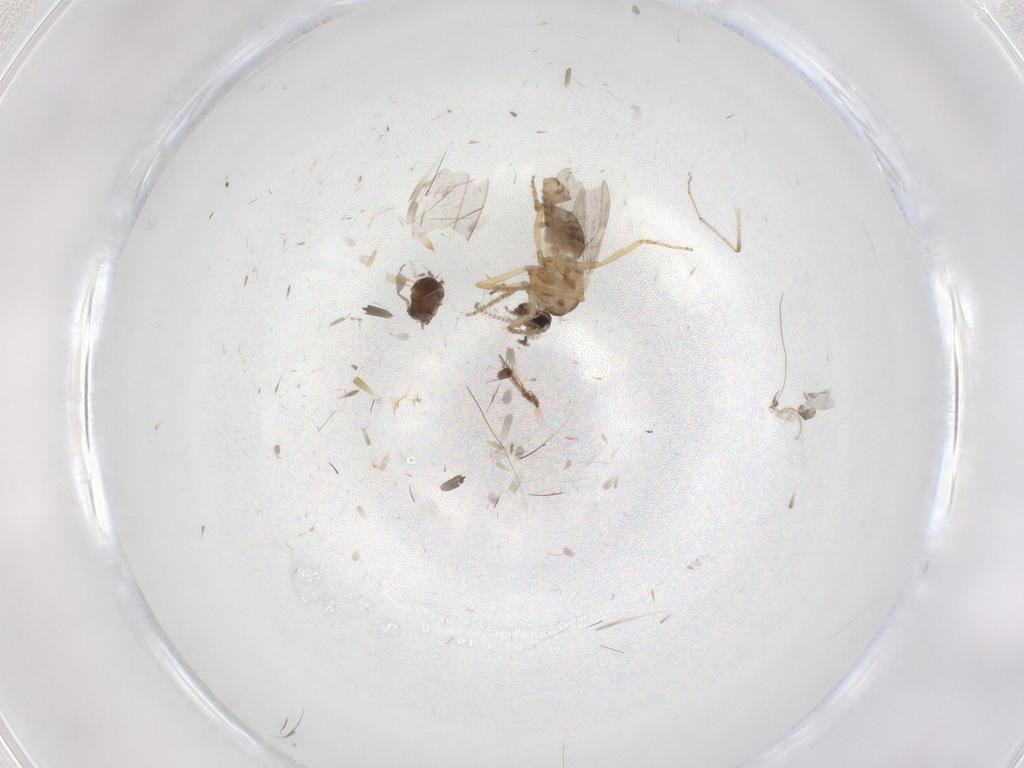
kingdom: Animalia
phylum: Arthropoda
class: Insecta
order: Diptera
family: Ceratopogonidae
